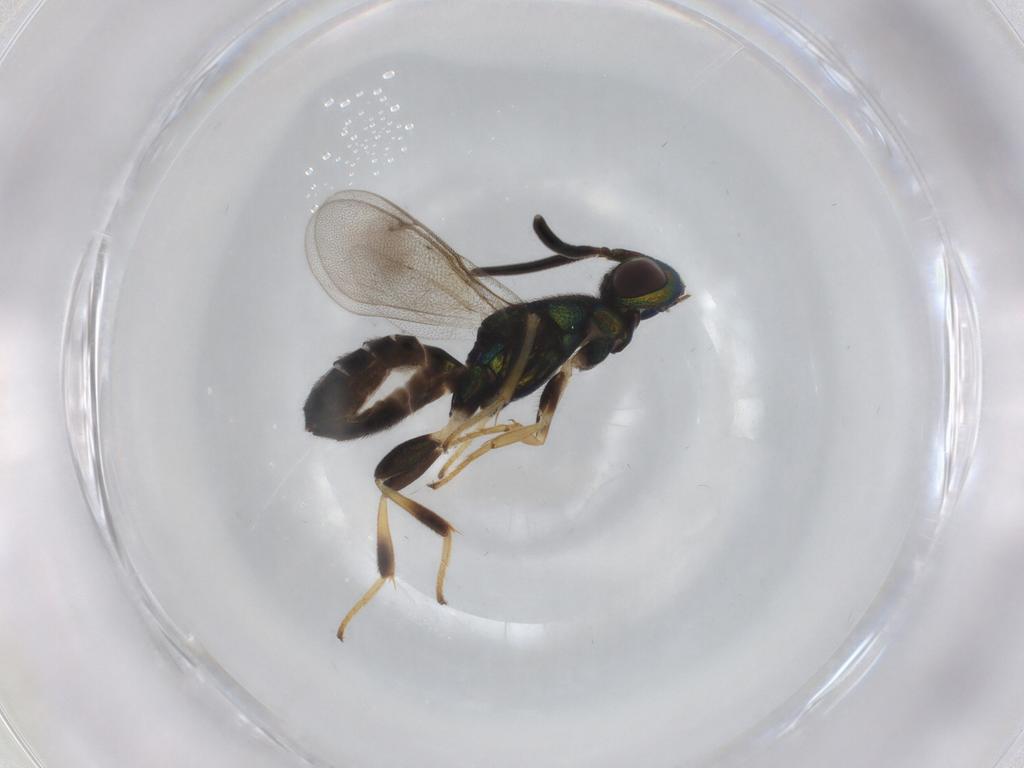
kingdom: Animalia
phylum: Arthropoda
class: Insecta
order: Hymenoptera
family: Eupelmidae
